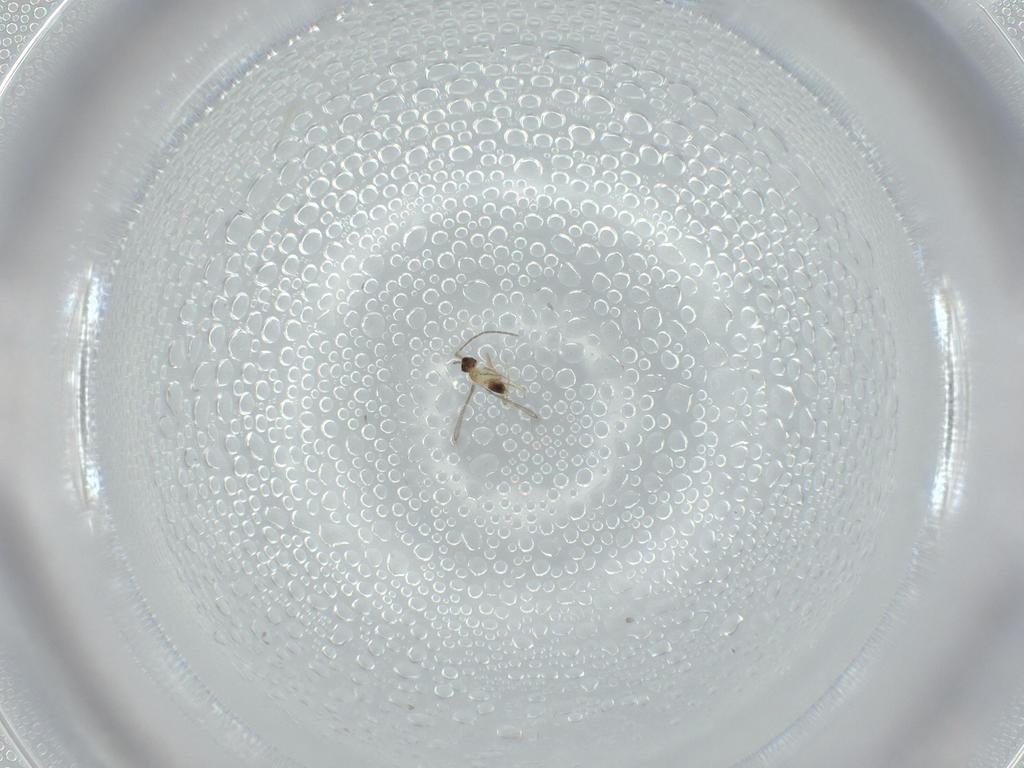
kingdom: Animalia
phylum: Arthropoda
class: Insecta
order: Hymenoptera
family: Mymaridae
